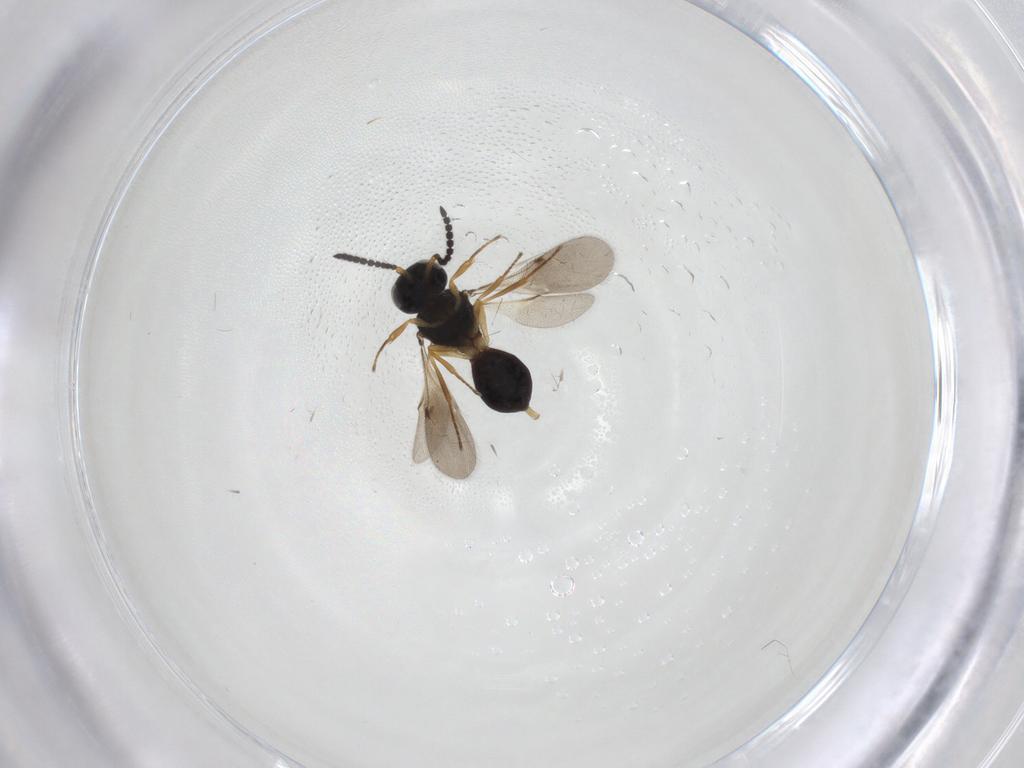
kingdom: Animalia
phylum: Arthropoda
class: Insecta
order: Hymenoptera
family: Scelionidae
